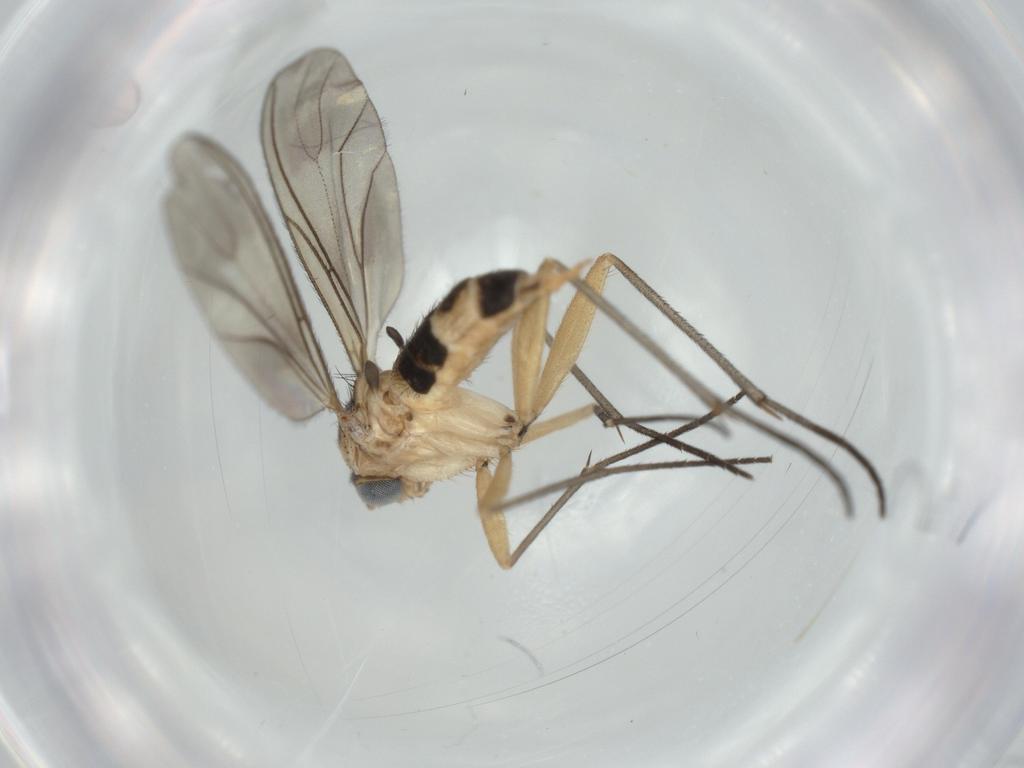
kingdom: Animalia
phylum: Arthropoda
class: Insecta
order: Diptera
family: Sciaridae
